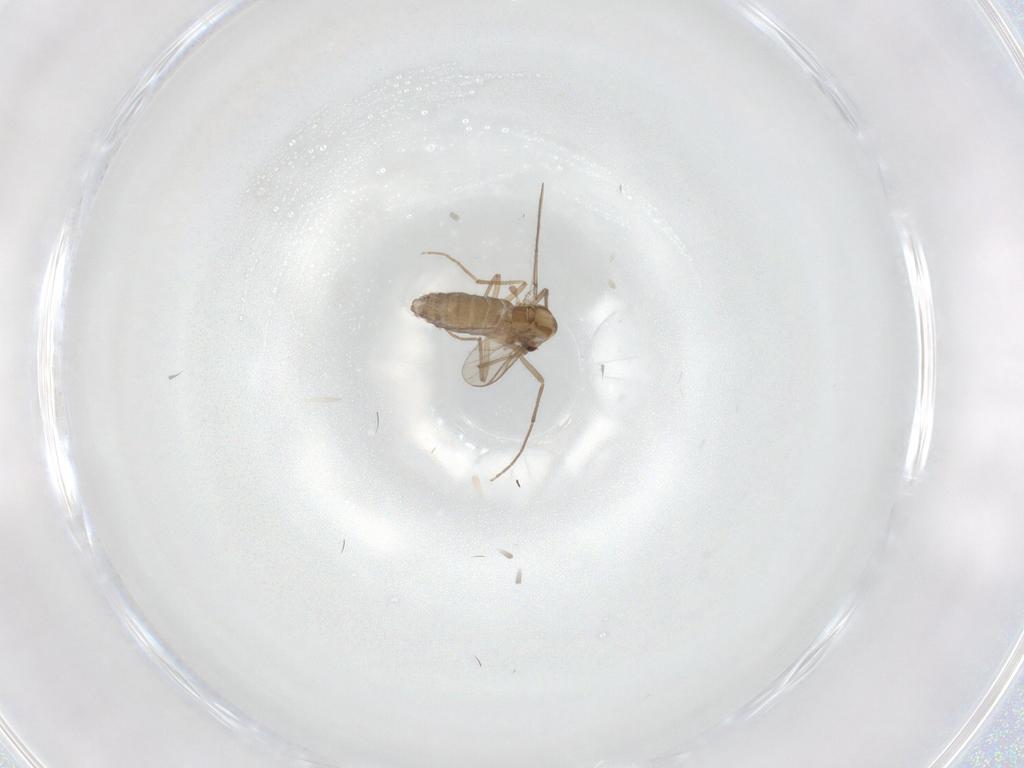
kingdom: Animalia
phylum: Arthropoda
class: Insecta
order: Diptera
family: Chironomidae
